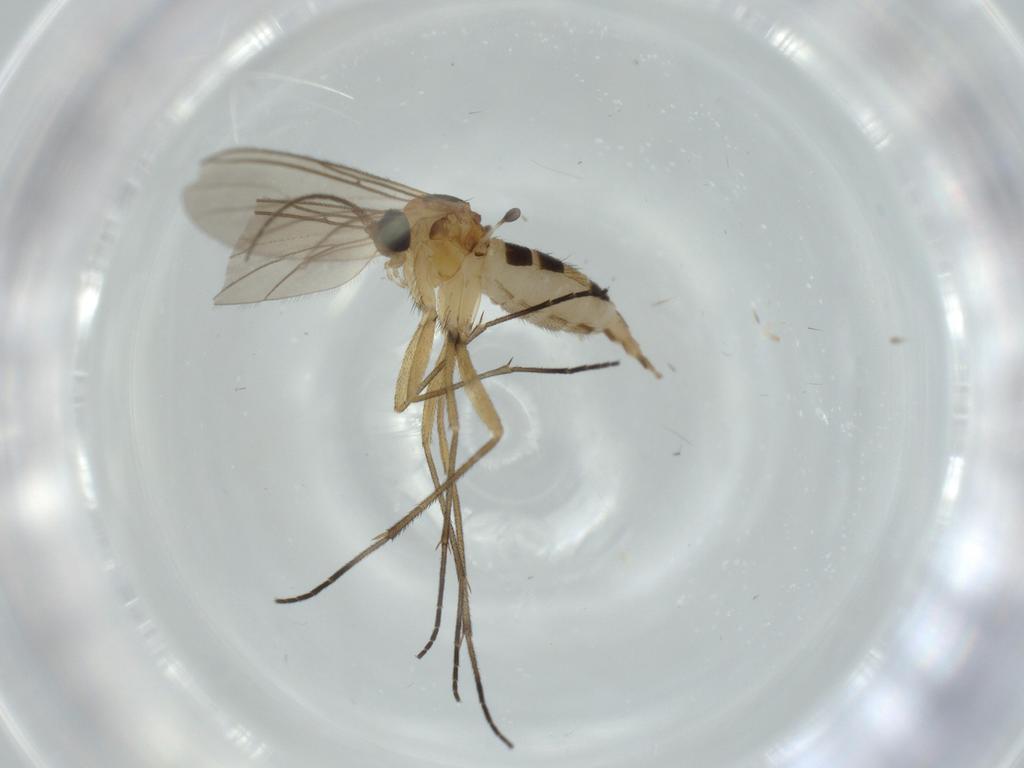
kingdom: Animalia
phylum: Arthropoda
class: Insecta
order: Diptera
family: Sciaridae
